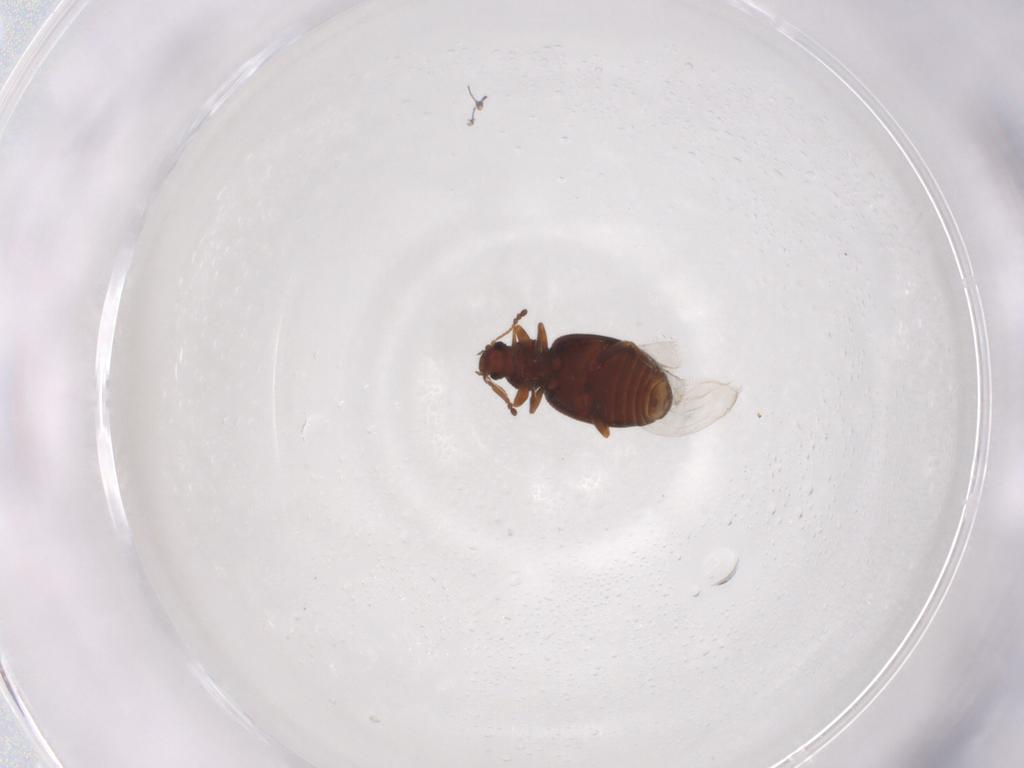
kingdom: Animalia
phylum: Arthropoda
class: Insecta
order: Coleoptera
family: Latridiidae
